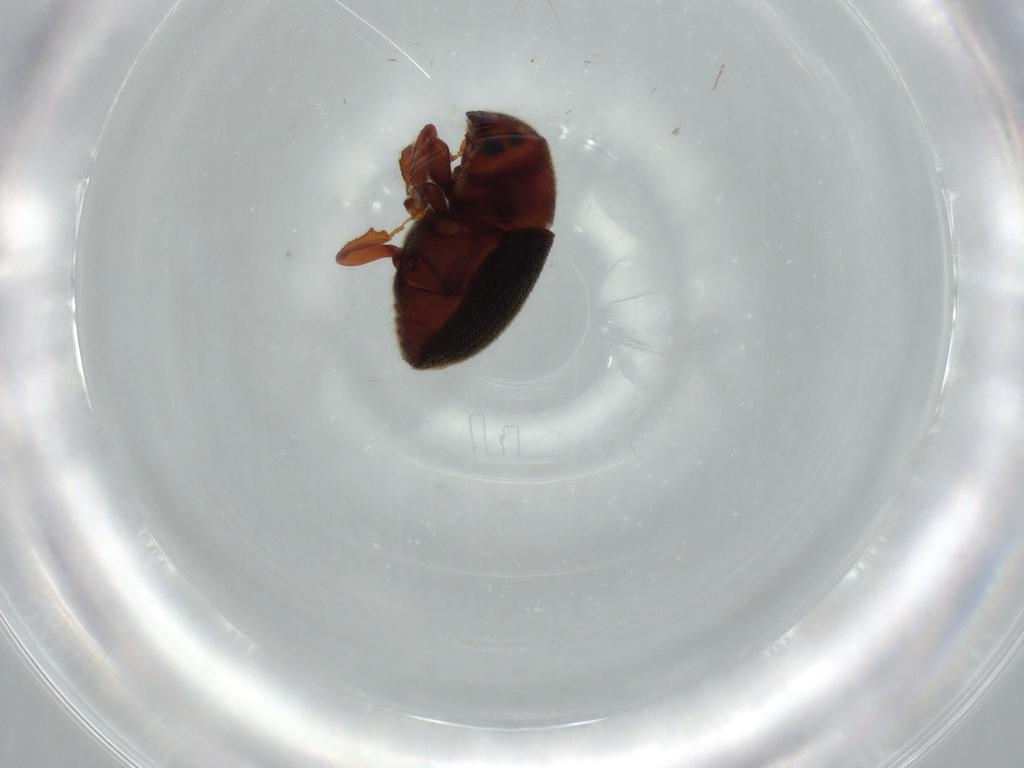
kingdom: Animalia
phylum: Arthropoda
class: Insecta
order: Coleoptera
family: Curculionidae
